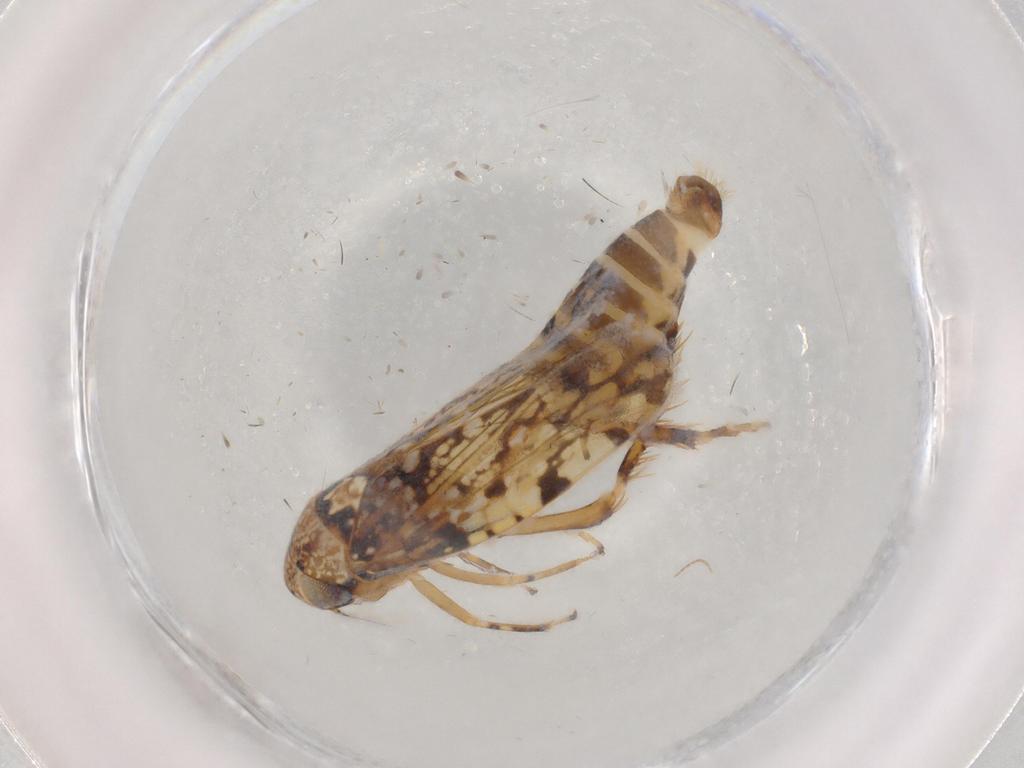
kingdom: Animalia
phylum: Arthropoda
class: Insecta
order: Hemiptera
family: Cicadellidae
